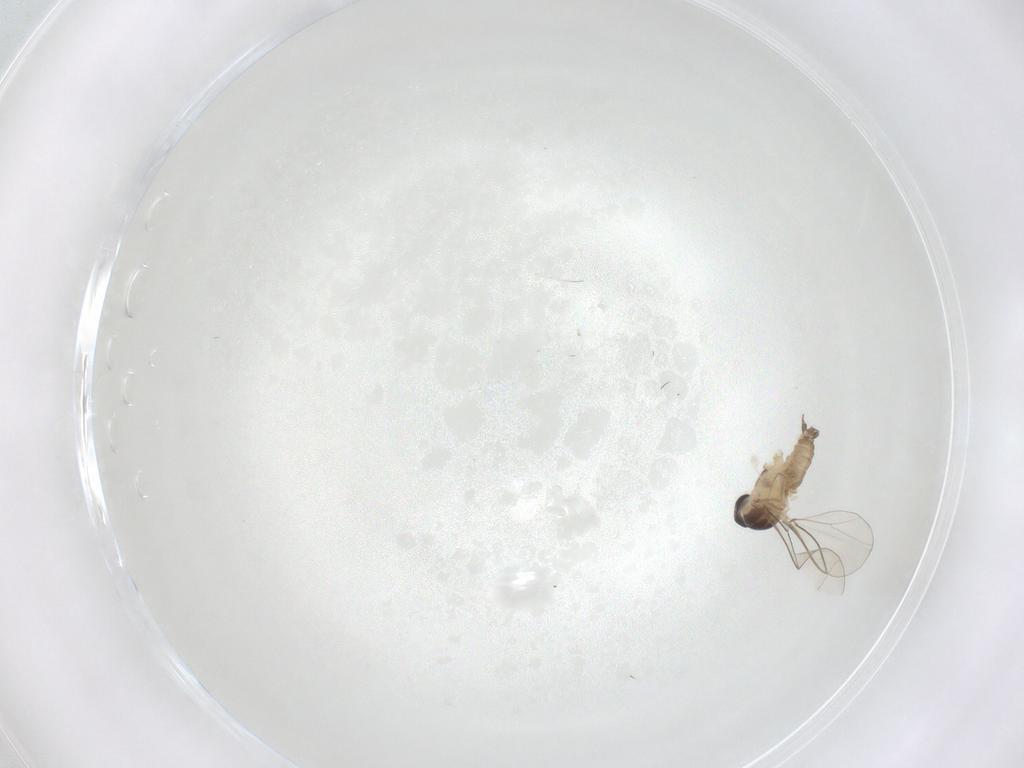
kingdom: Animalia
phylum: Arthropoda
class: Insecta
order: Diptera
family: Cecidomyiidae
